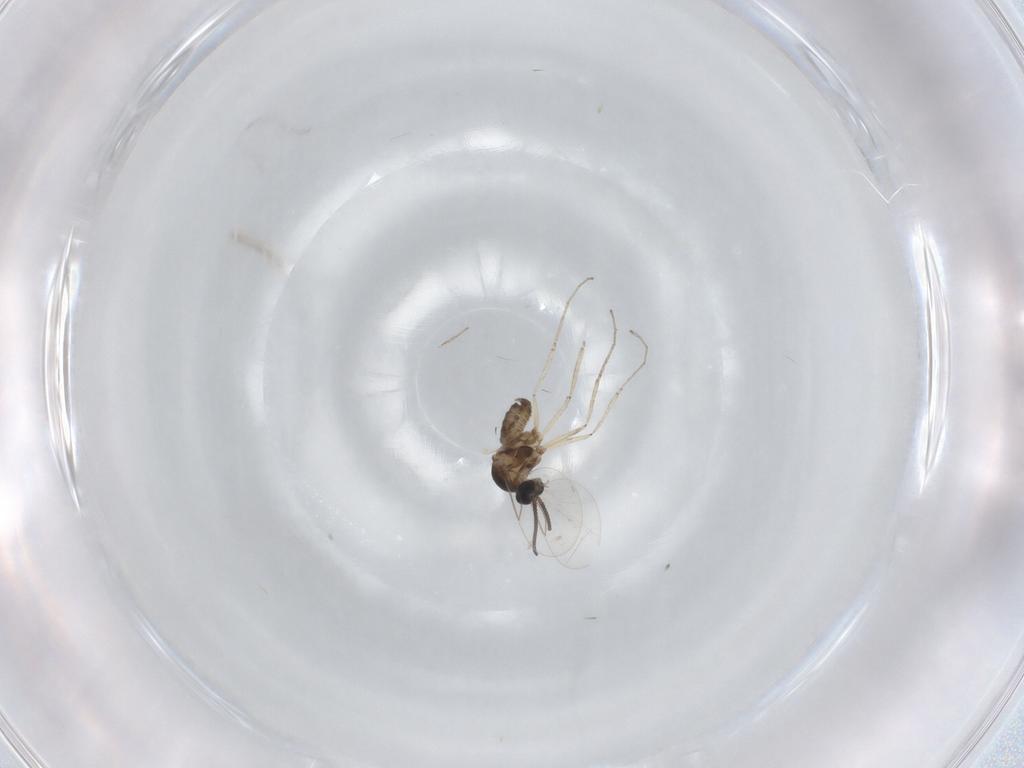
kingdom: Animalia
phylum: Arthropoda
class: Insecta
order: Diptera
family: Cecidomyiidae
